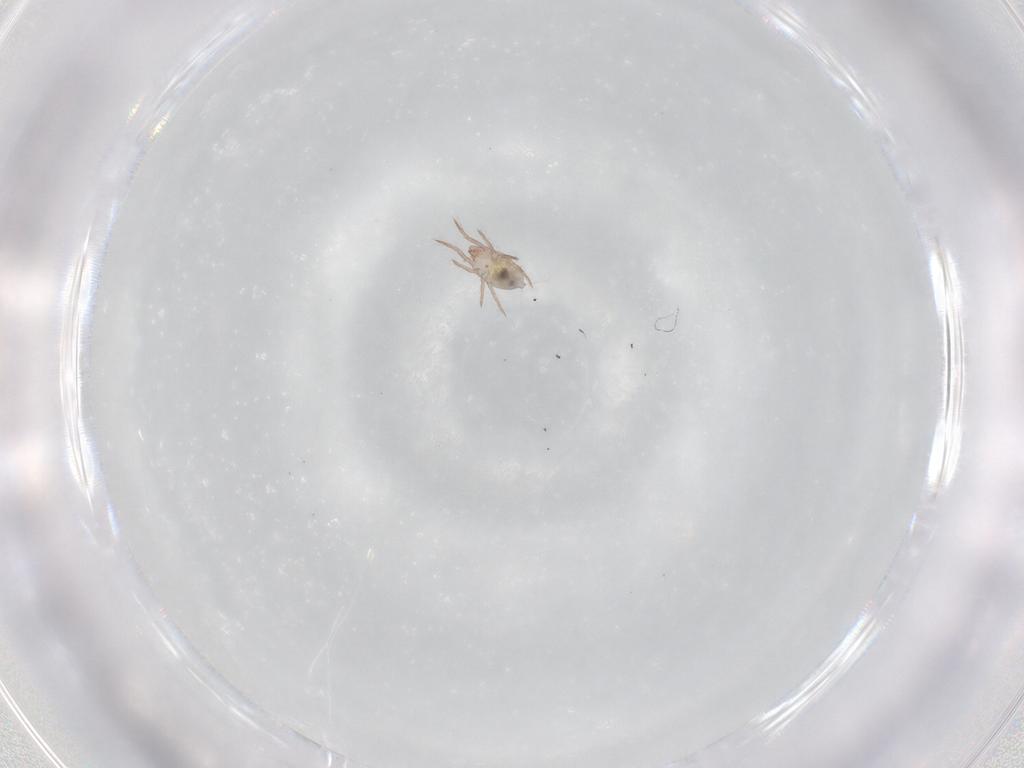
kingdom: Animalia
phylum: Arthropoda
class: Arachnida
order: Sarcoptiformes
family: Ceratoppiidae
